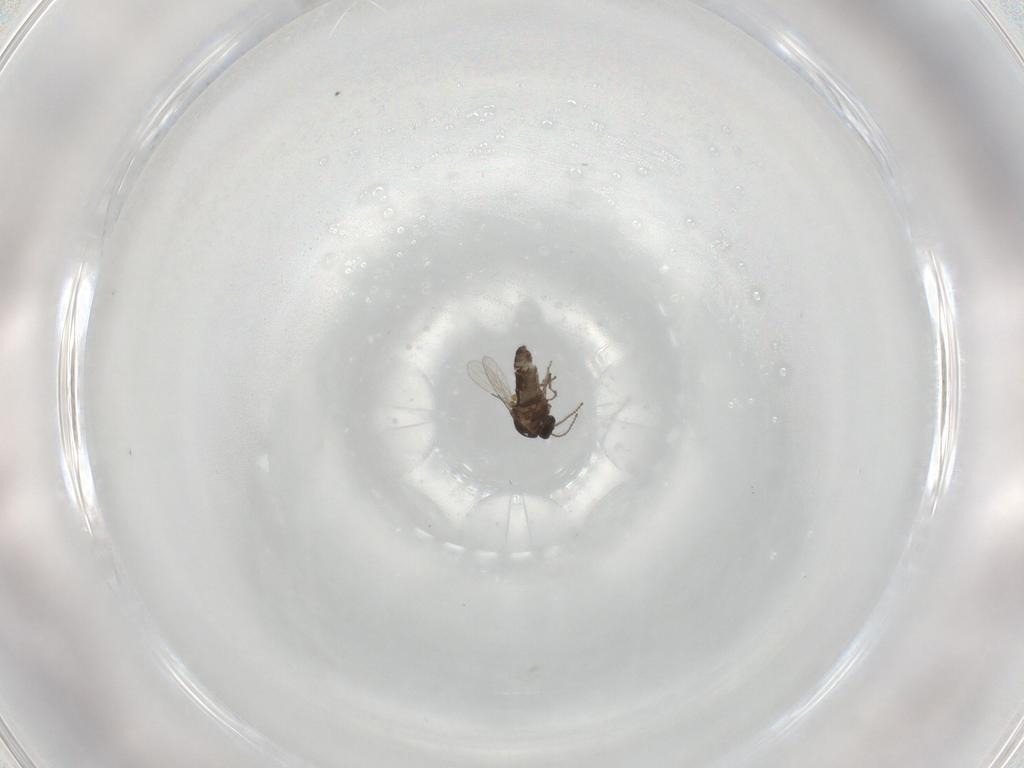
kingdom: Animalia
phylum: Arthropoda
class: Insecta
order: Diptera
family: Ceratopogonidae
